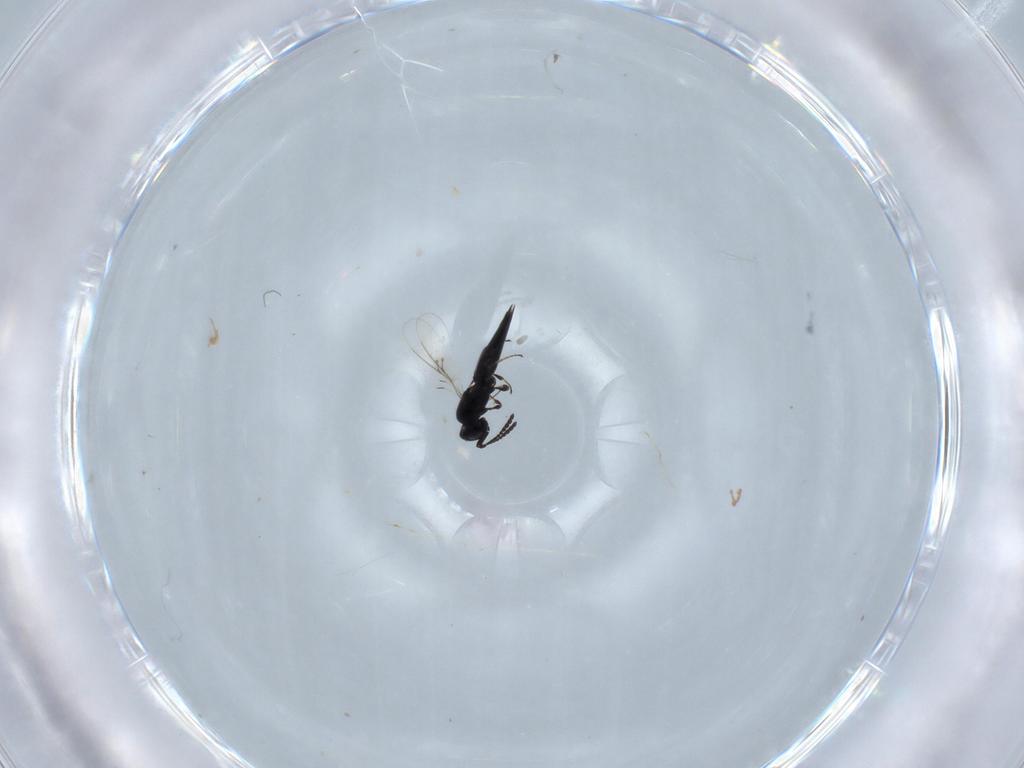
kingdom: Animalia
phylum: Arthropoda
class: Insecta
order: Hymenoptera
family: Scelionidae
